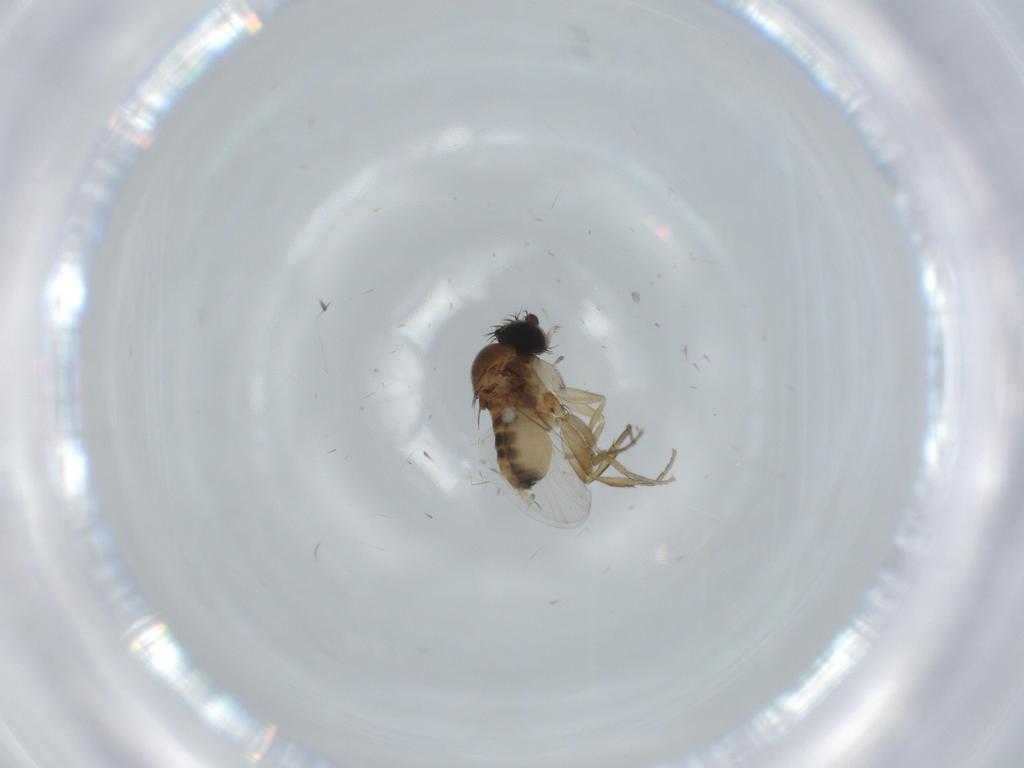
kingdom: Animalia
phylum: Arthropoda
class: Insecta
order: Diptera
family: Phoridae
